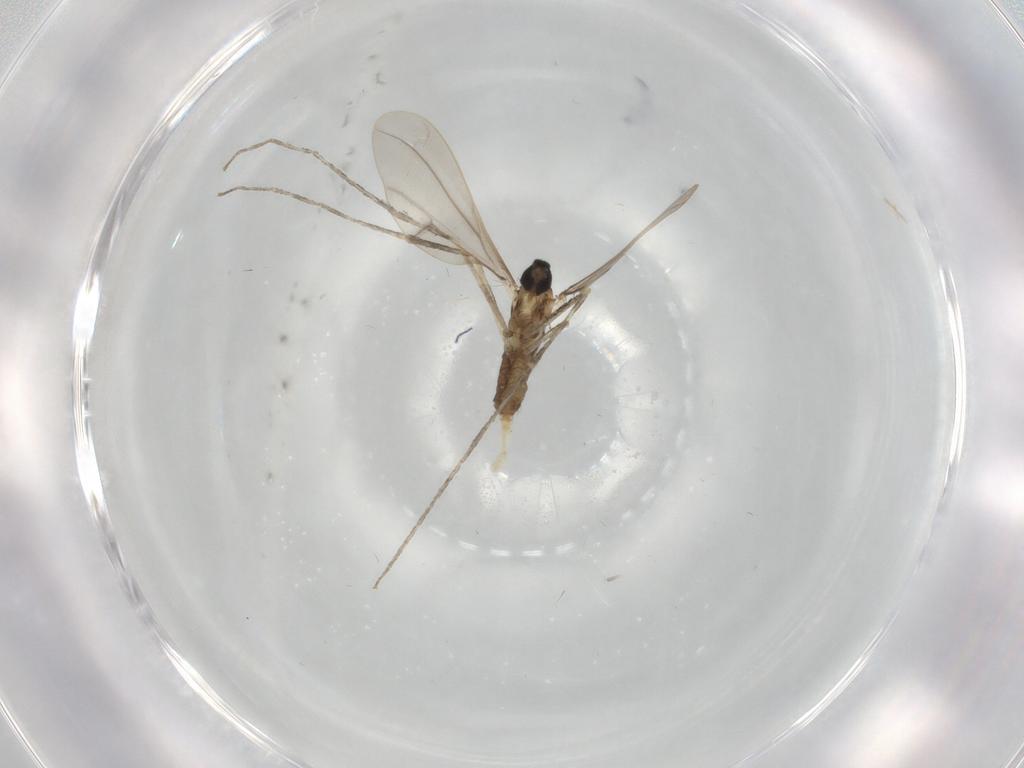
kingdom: Animalia
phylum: Arthropoda
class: Insecta
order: Diptera
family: Cecidomyiidae
